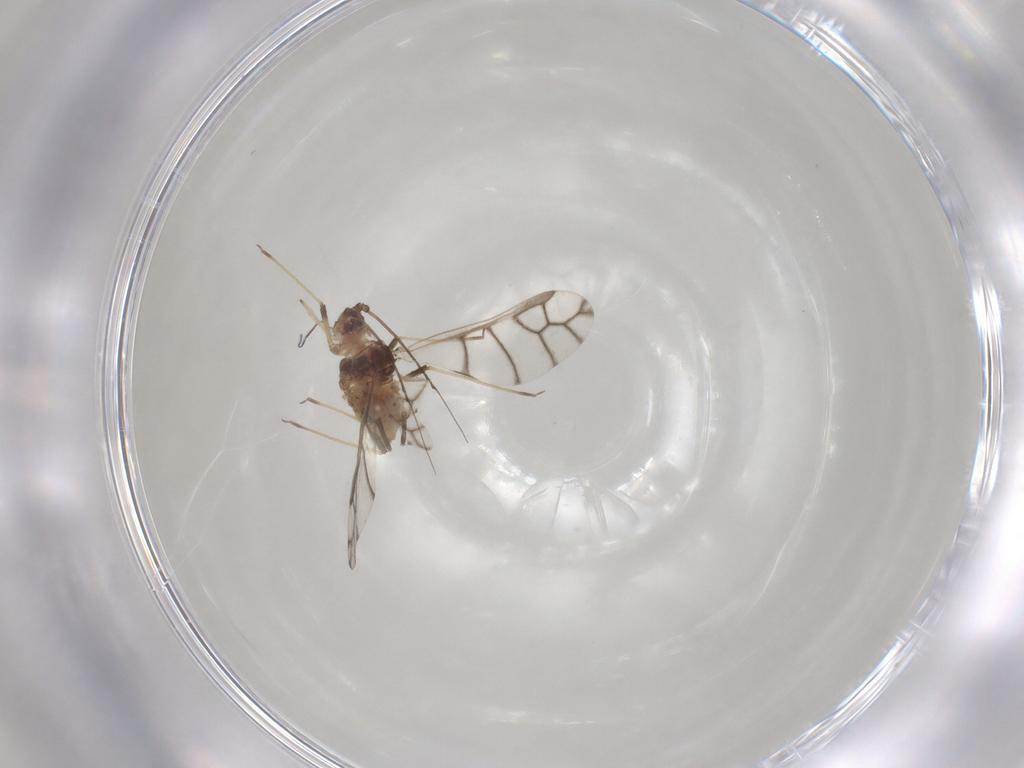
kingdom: Animalia
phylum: Arthropoda
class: Insecta
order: Hemiptera
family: Aphididae
